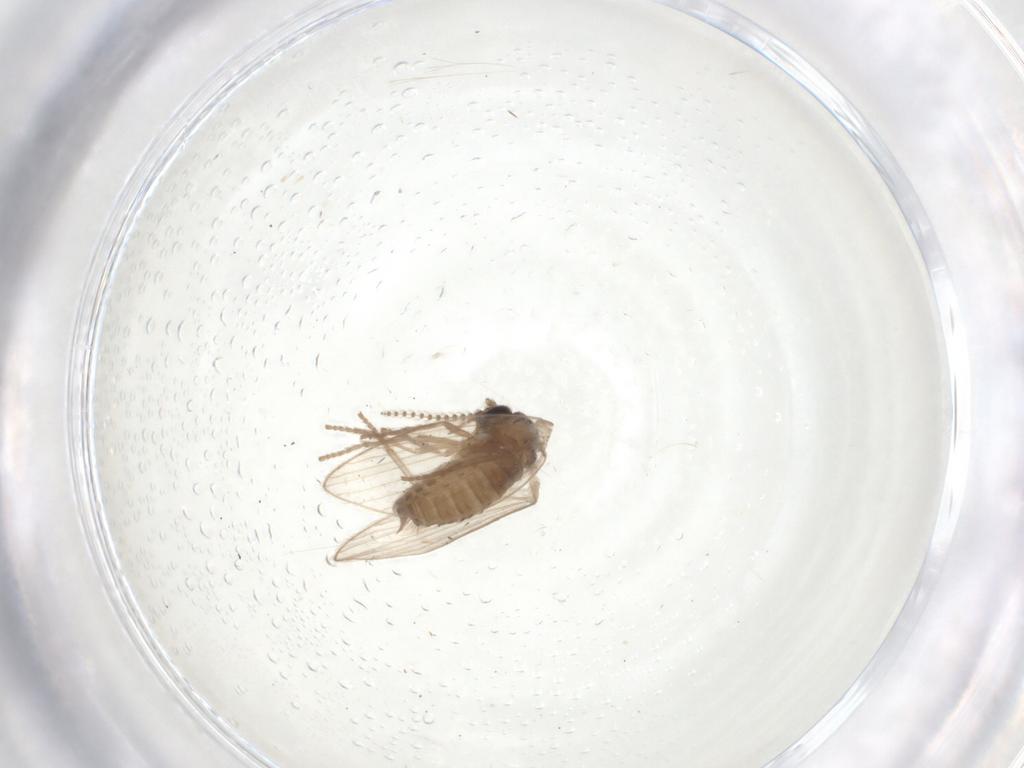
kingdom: Animalia
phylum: Arthropoda
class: Insecta
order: Diptera
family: Psychodidae
